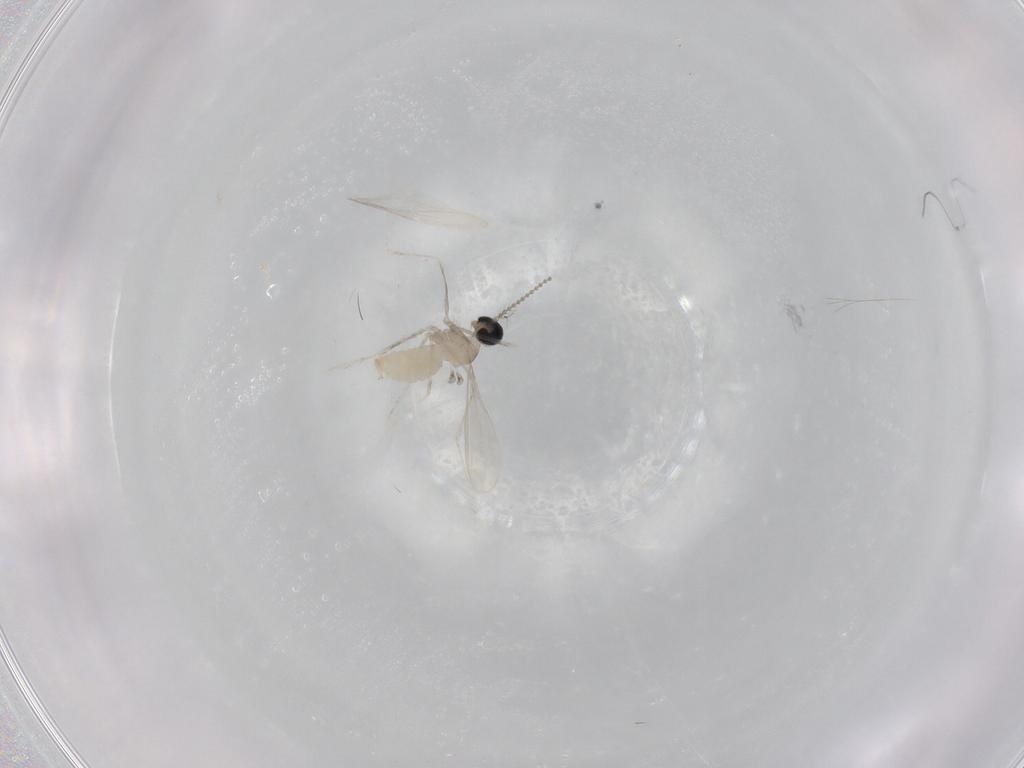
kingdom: Animalia
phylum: Arthropoda
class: Insecta
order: Diptera
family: Cecidomyiidae
